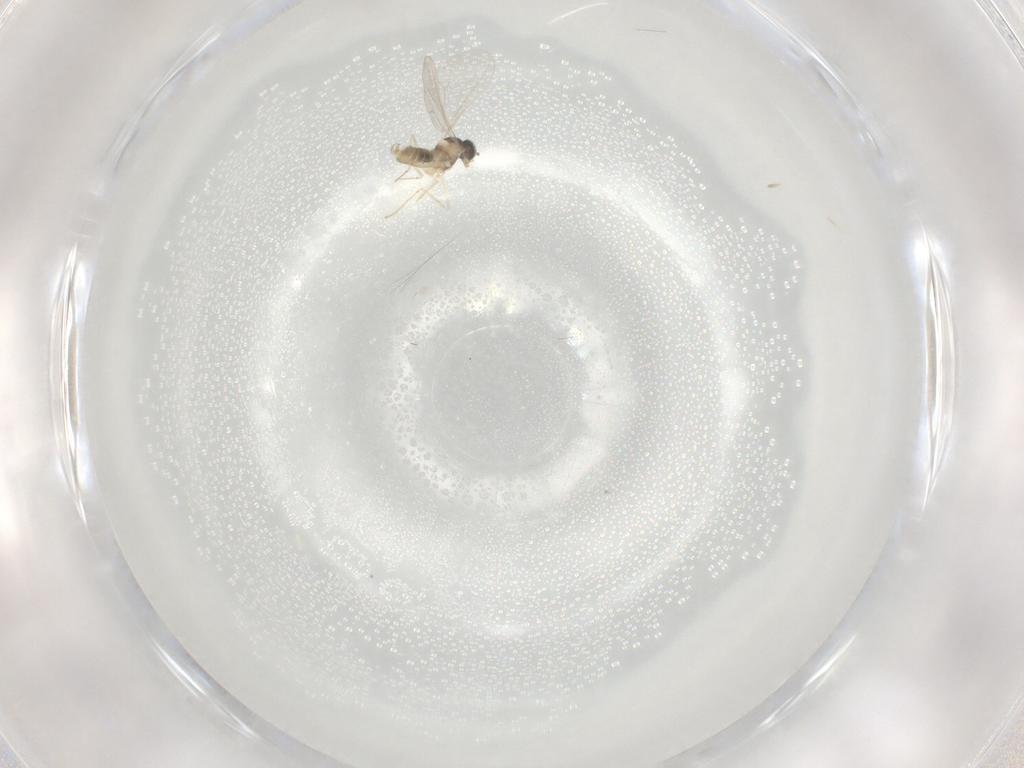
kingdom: Animalia
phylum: Arthropoda
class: Insecta
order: Diptera
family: Cecidomyiidae
